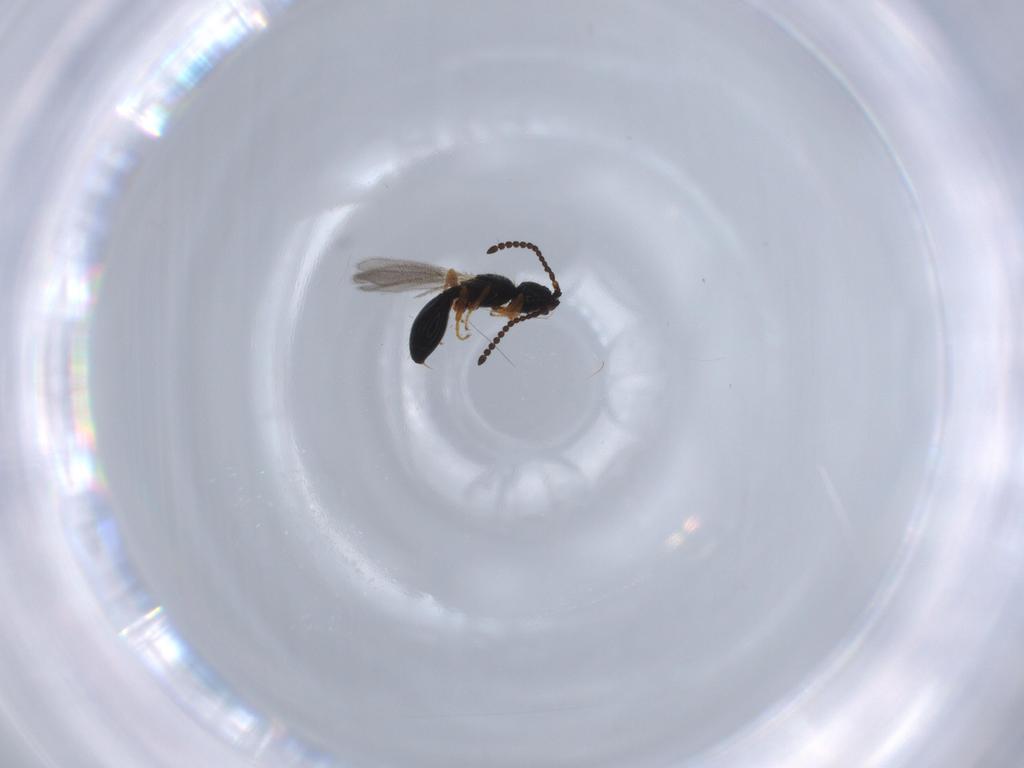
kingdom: Animalia
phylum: Arthropoda
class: Insecta
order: Hymenoptera
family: Diapriidae
